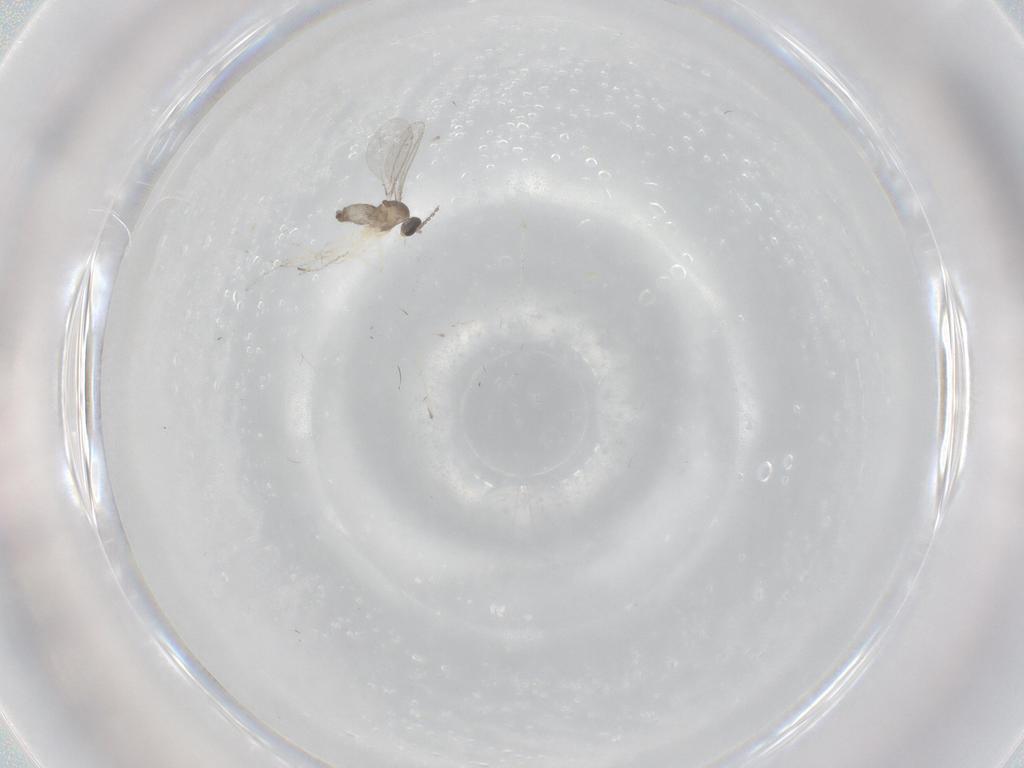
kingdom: Animalia
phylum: Arthropoda
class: Insecta
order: Diptera
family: Cecidomyiidae
